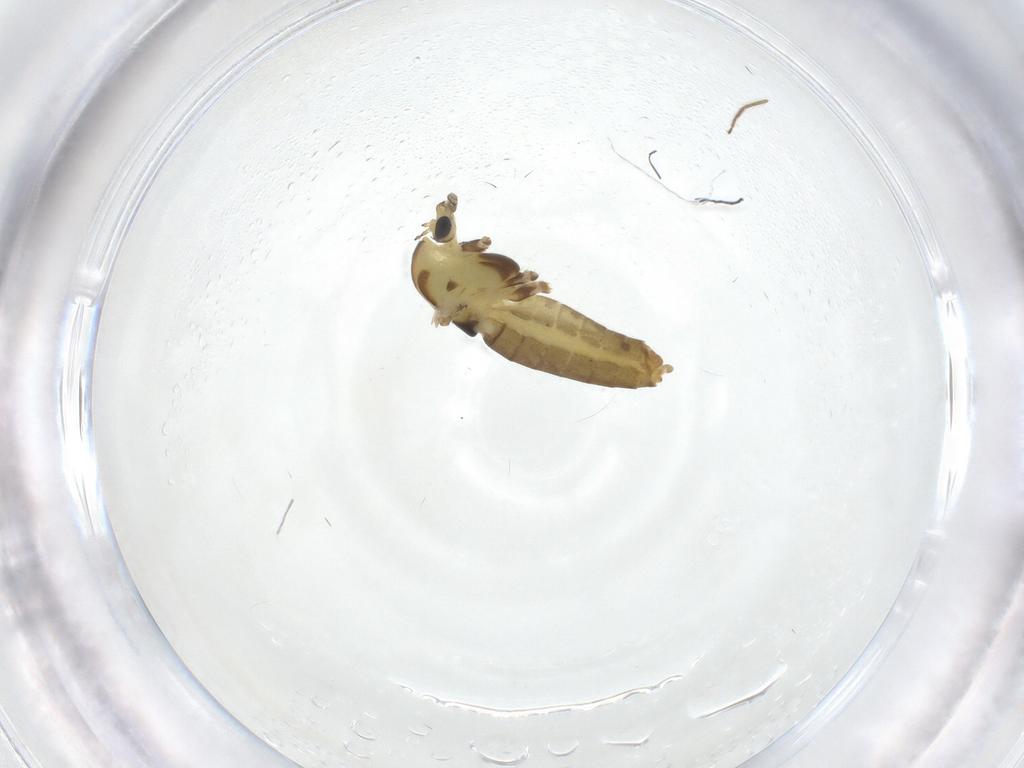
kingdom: Animalia
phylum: Arthropoda
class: Insecta
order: Diptera
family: Chironomidae
